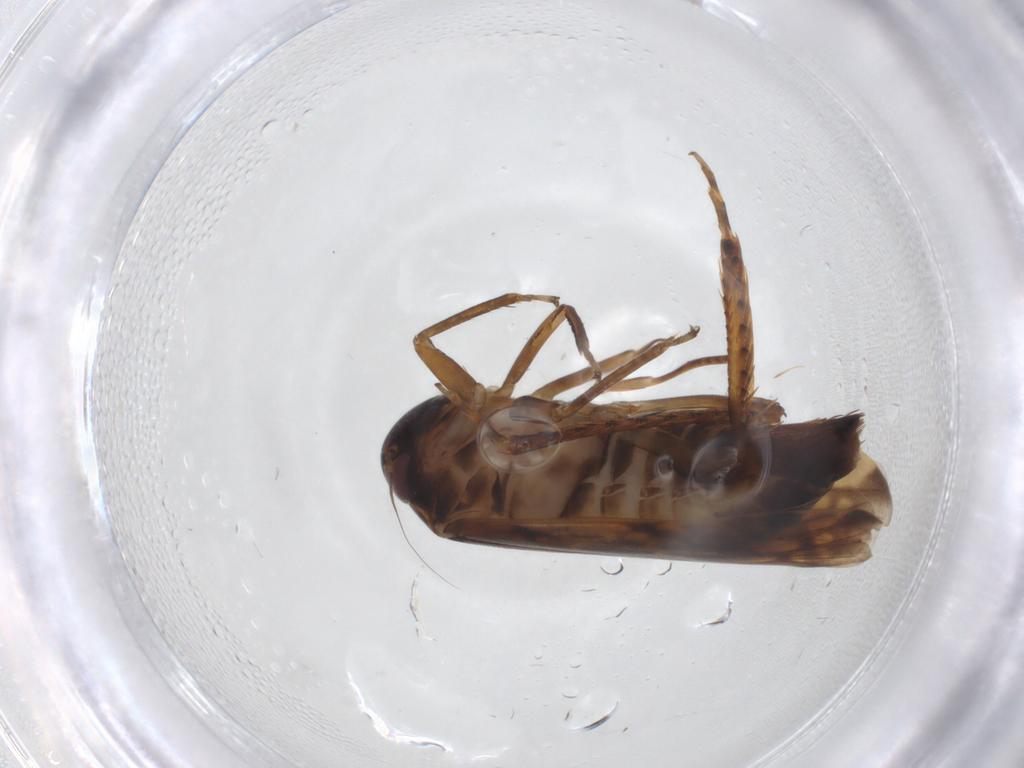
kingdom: Animalia
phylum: Arthropoda
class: Insecta
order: Hemiptera
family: Cicadellidae
